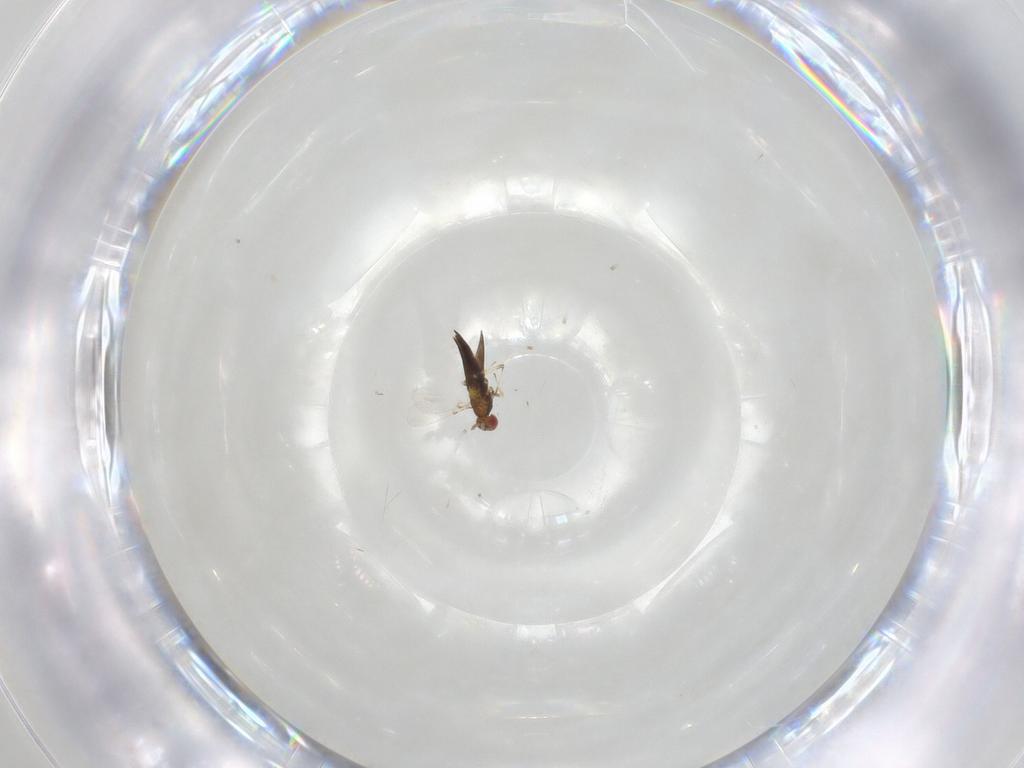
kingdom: Animalia
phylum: Arthropoda
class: Insecta
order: Hymenoptera
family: Trichogrammatidae
